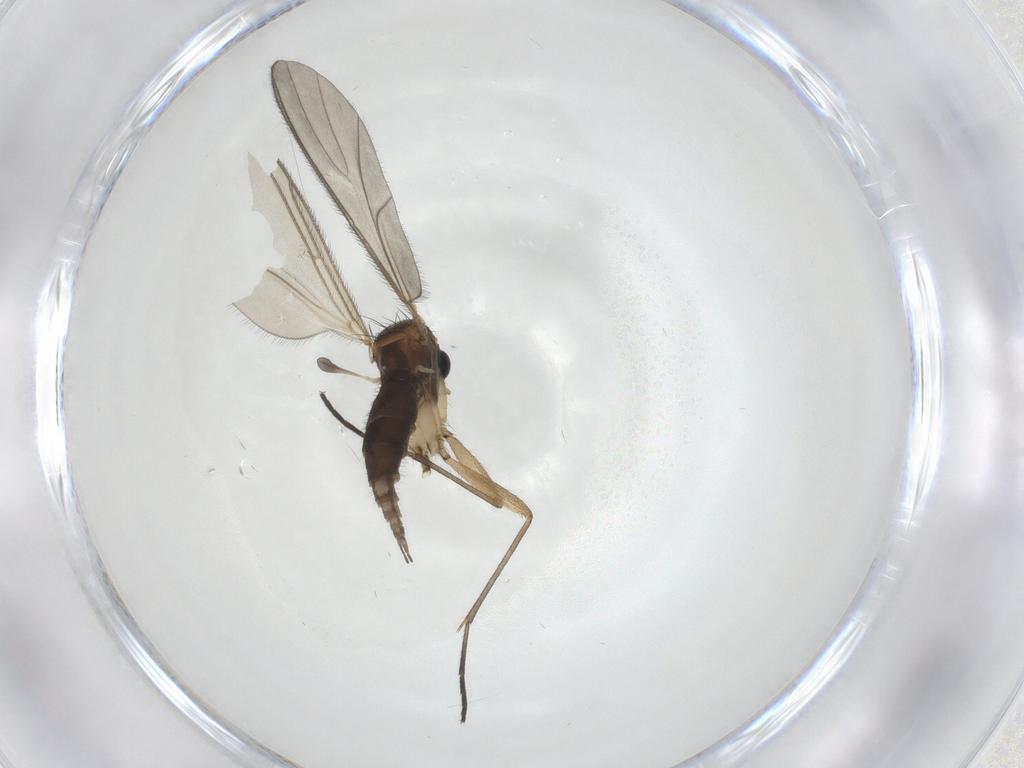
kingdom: Animalia
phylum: Arthropoda
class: Insecta
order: Diptera
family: Sciaridae
